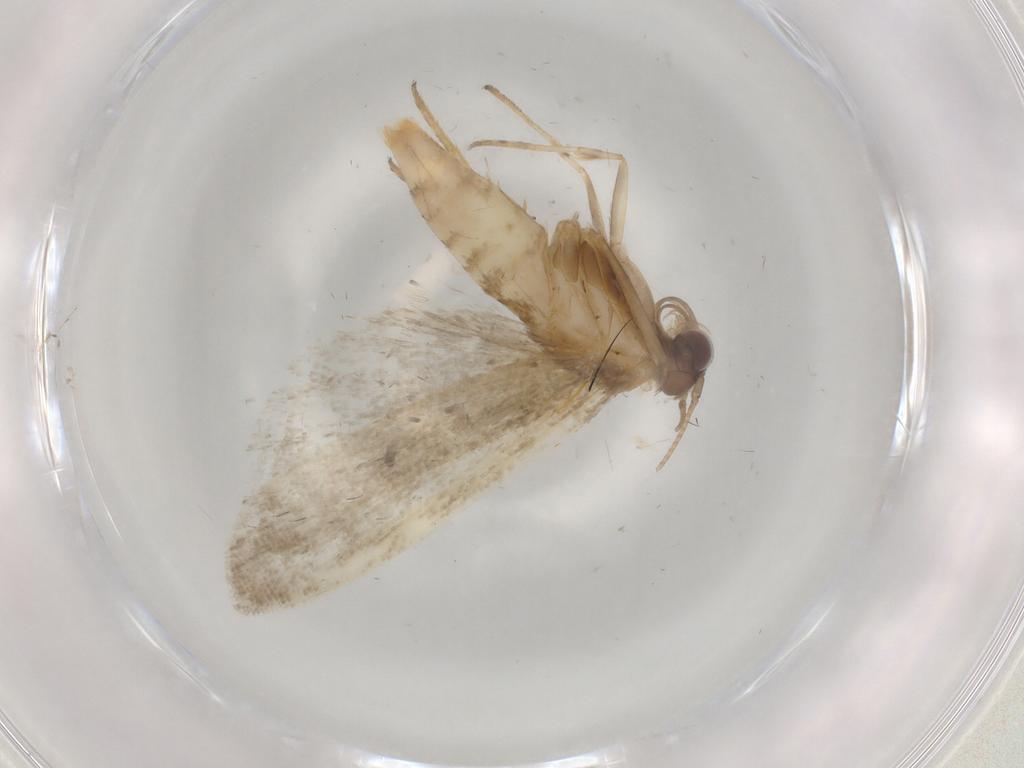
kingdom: Animalia
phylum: Arthropoda
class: Insecta
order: Lepidoptera
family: Noctuidae
